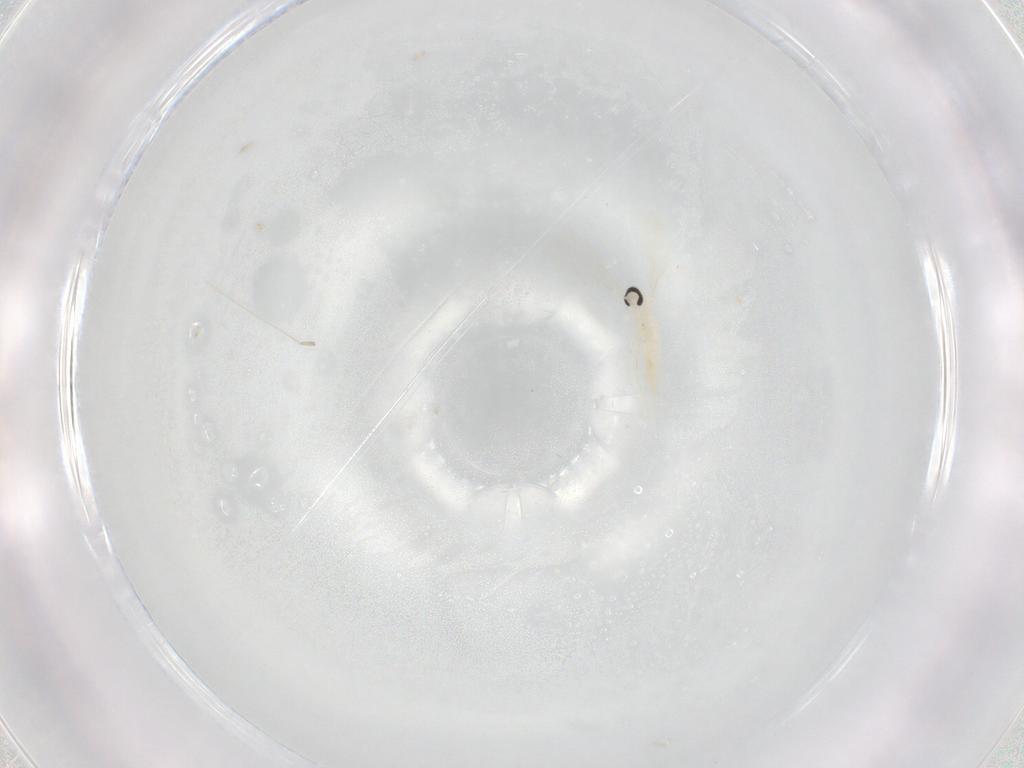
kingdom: Animalia
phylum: Arthropoda
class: Insecta
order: Diptera
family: Cecidomyiidae
